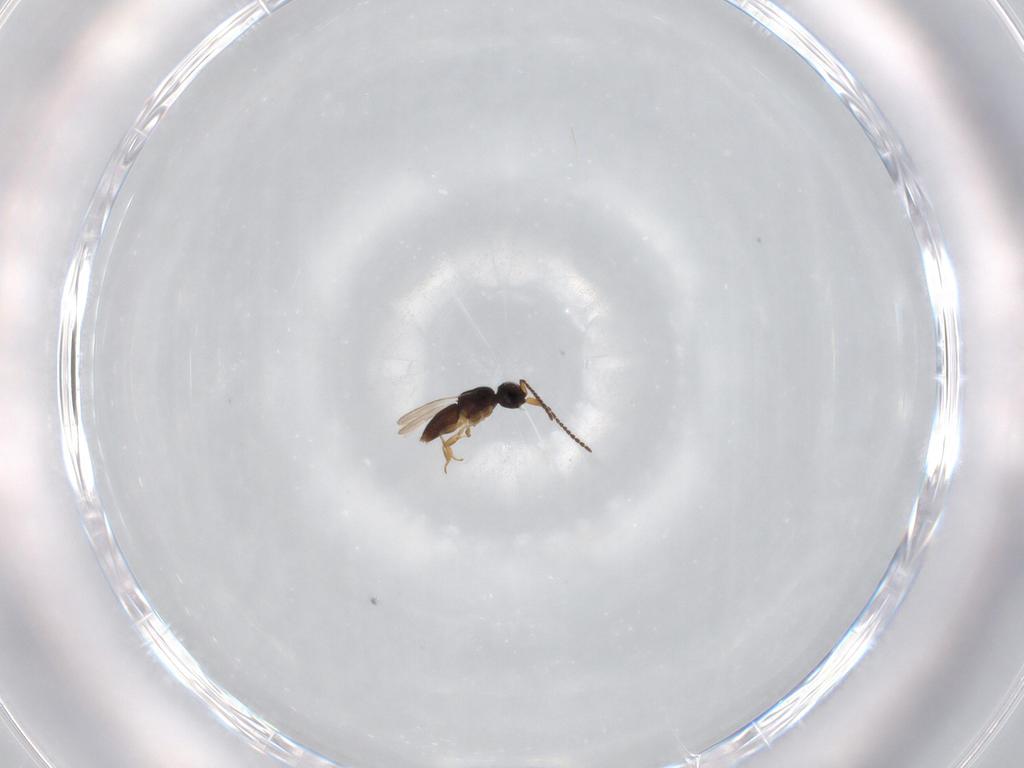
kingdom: Animalia
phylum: Arthropoda
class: Insecta
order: Hymenoptera
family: Ceraphronidae
